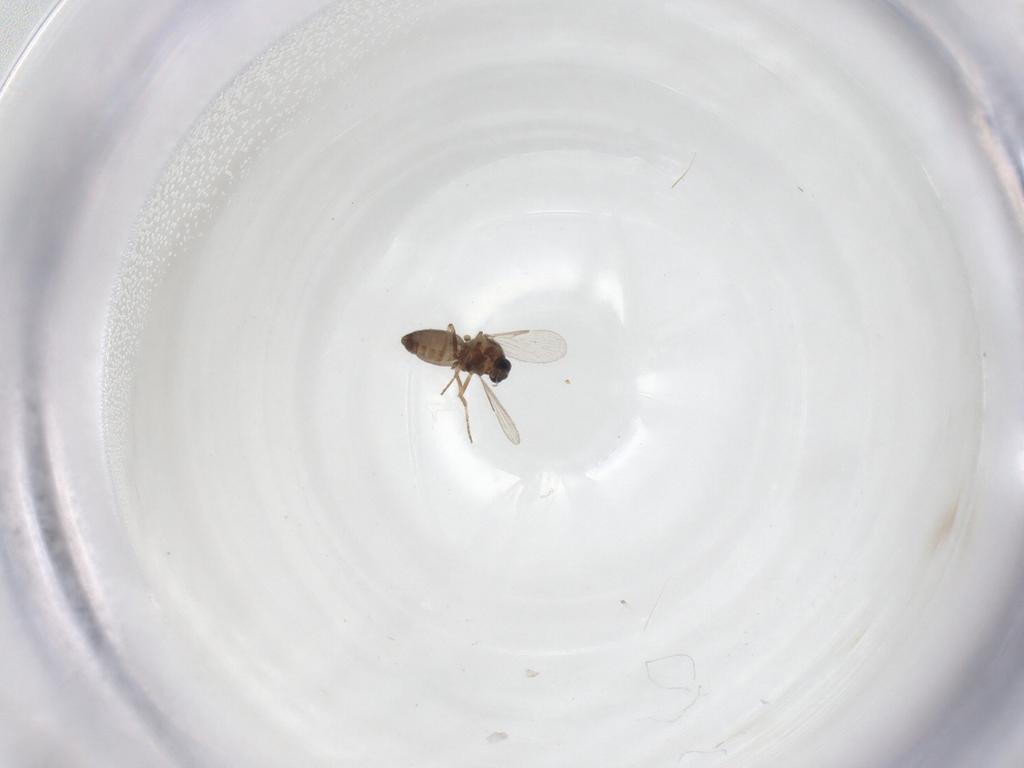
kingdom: Animalia
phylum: Arthropoda
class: Insecta
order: Diptera
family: Ceratopogonidae
